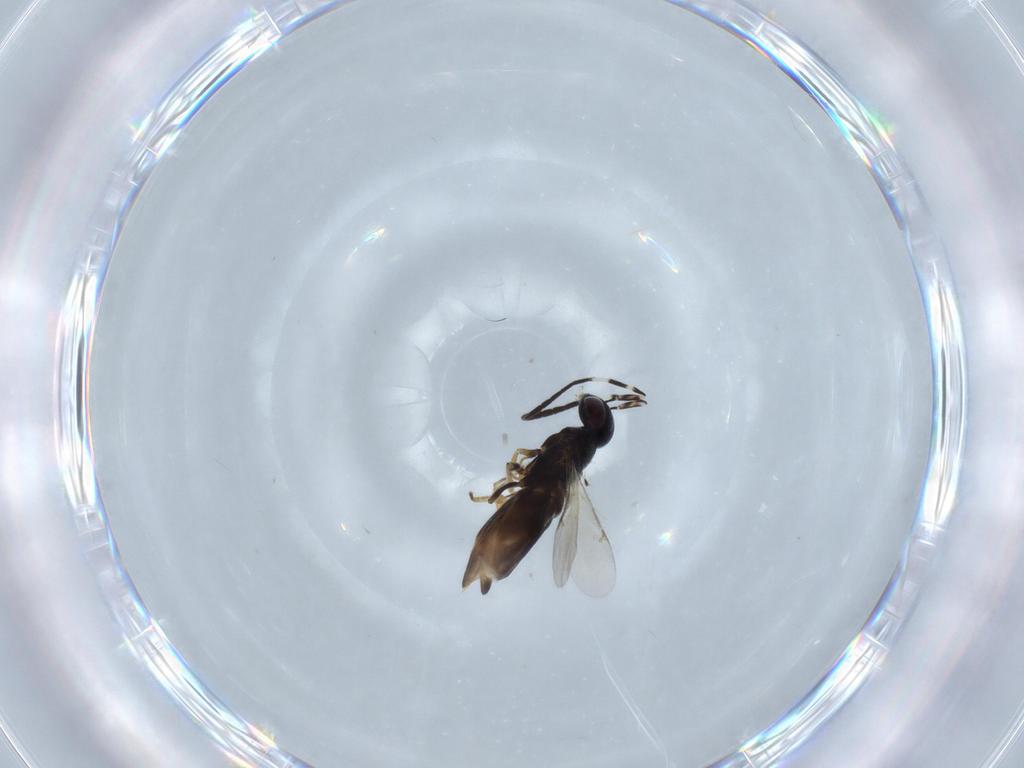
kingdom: Animalia
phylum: Arthropoda
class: Insecta
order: Hymenoptera
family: Encyrtidae
